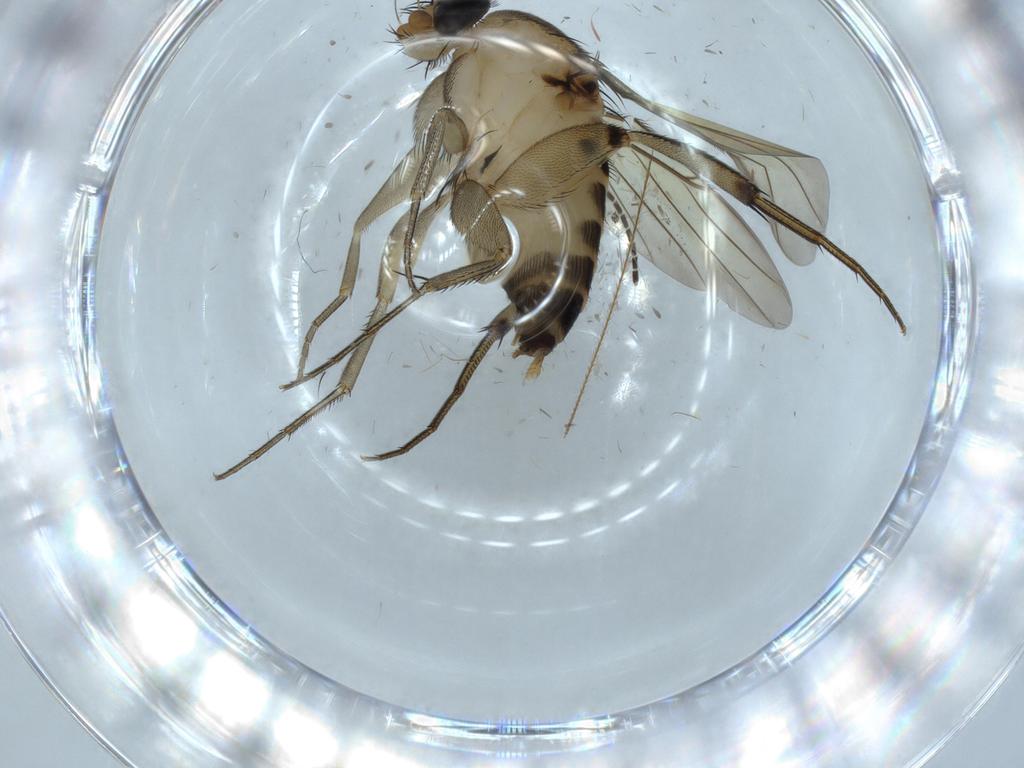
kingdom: Animalia
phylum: Arthropoda
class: Insecta
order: Diptera
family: Phoridae
